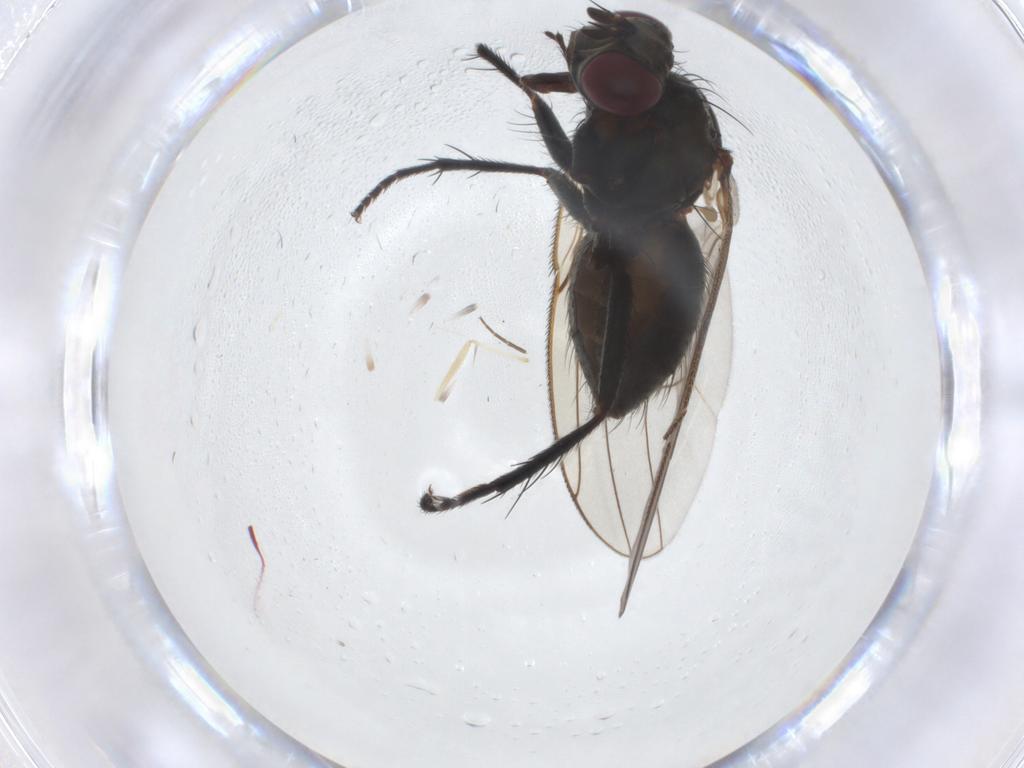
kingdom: Animalia
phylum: Arthropoda
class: Insecta
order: Diptera
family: Muscidae
